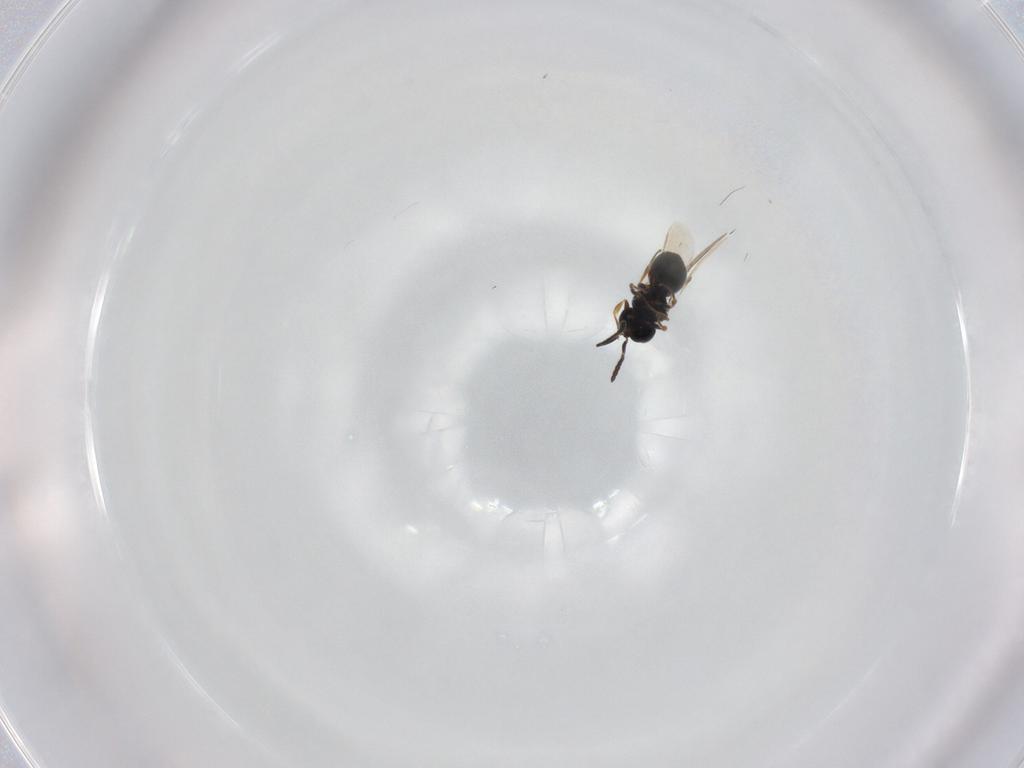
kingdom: Animalia
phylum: Arthropoda
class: Insecta
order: Hymenoptera
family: Scelionidae
